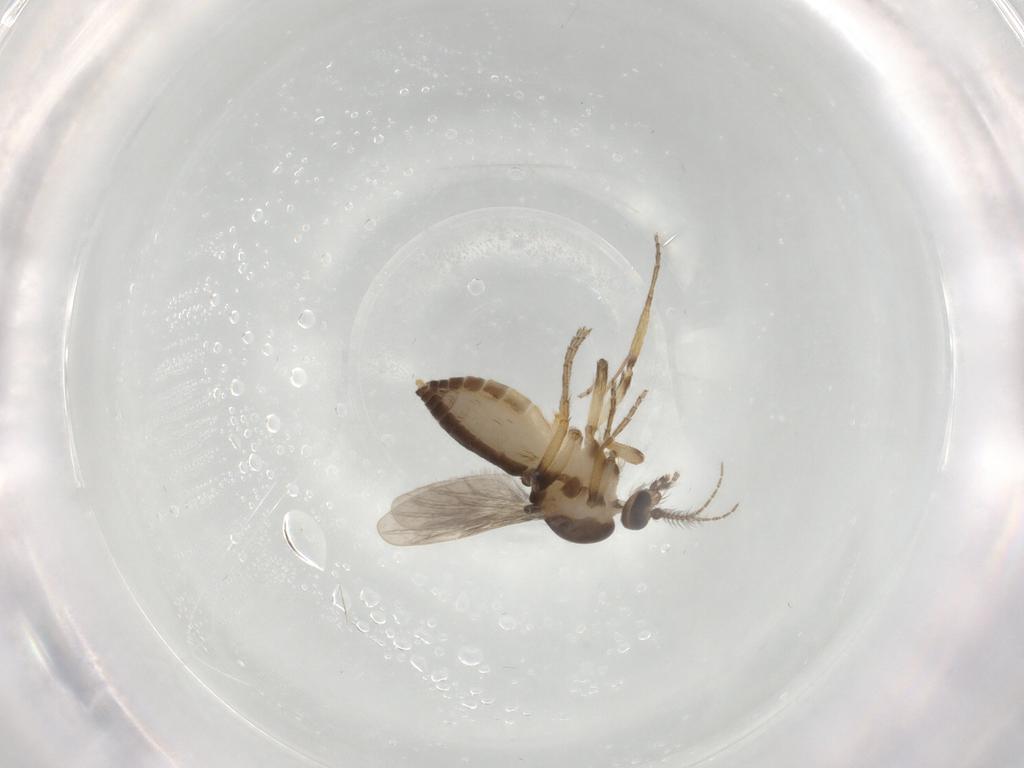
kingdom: Animalia
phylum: Arthropoda
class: Insecta
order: Diptera
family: Ceratopogonidae
